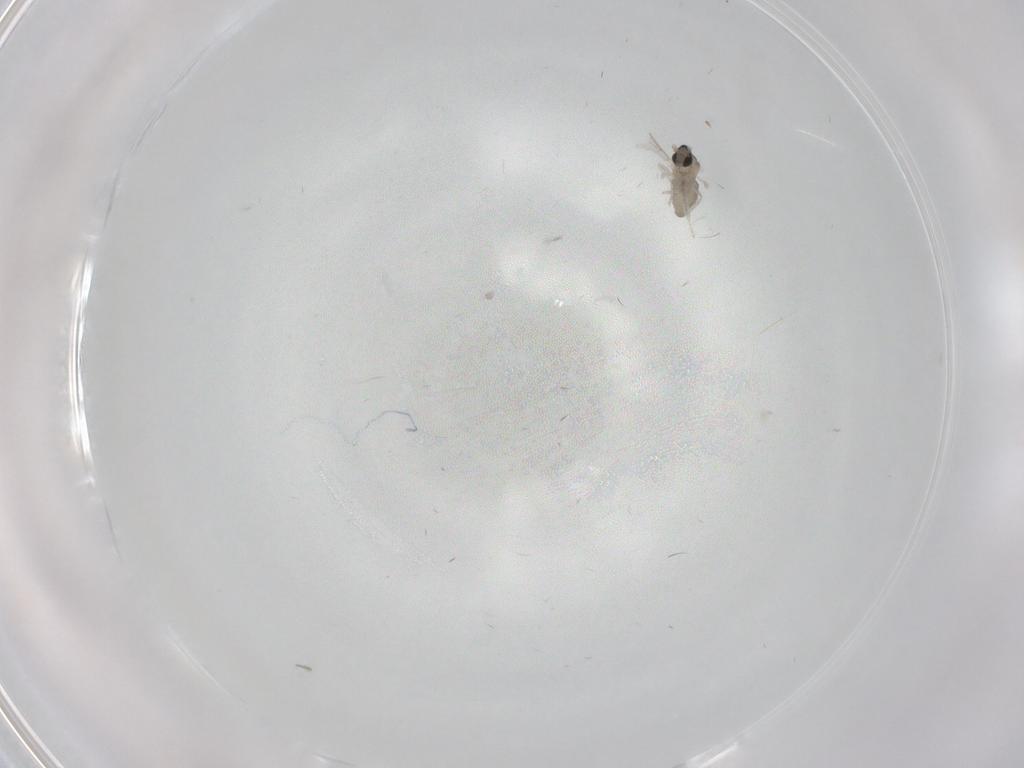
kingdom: Animalia
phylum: Arthropoda
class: Insecta
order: Diptera
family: Cecidomyiidae
